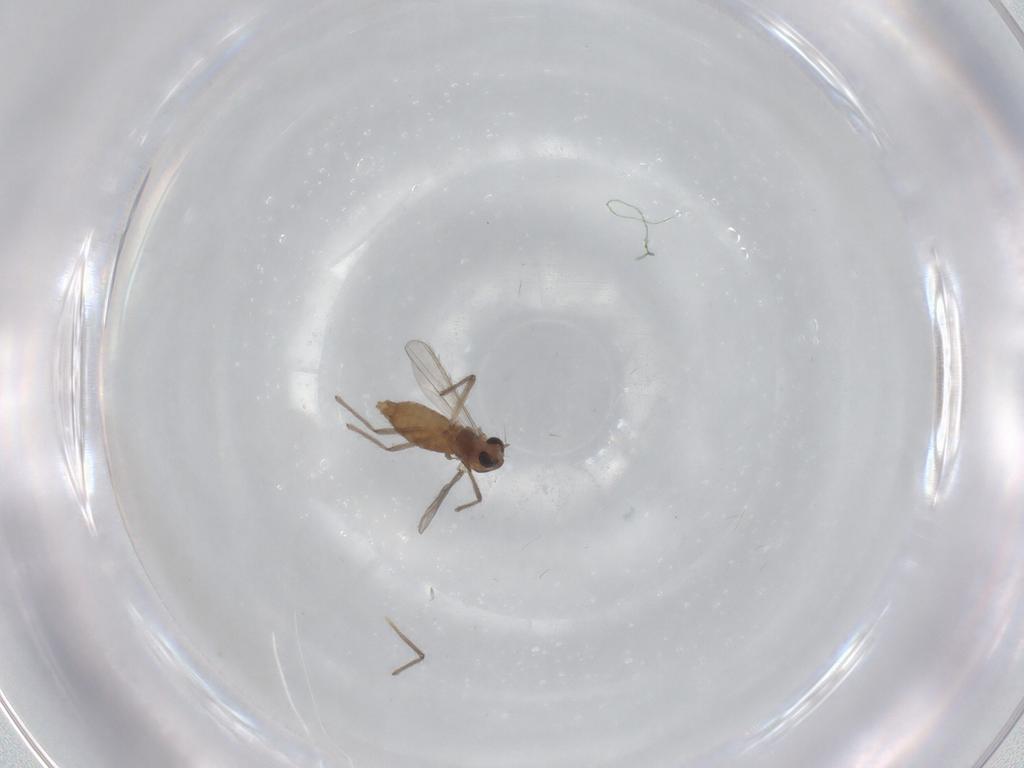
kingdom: Animalia
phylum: Arthropoda
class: Insecta
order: Diptera
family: Chironomidae
